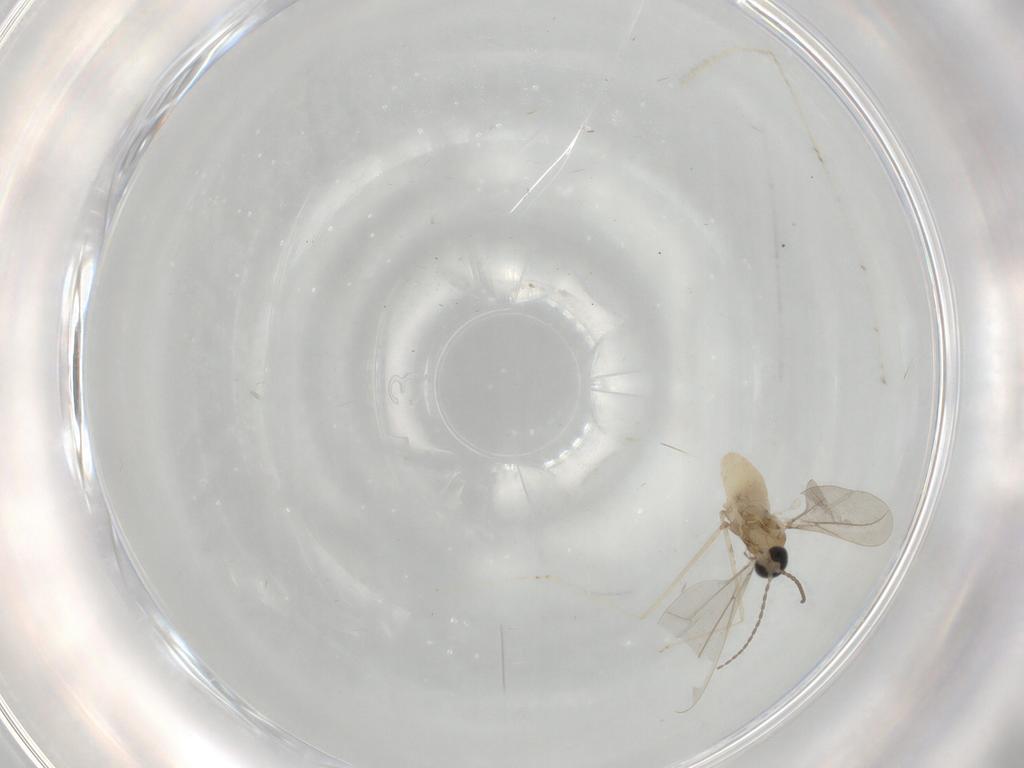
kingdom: Animalia
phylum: Arthropoda
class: Insecta
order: Diptera
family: Cecidomyiidae
